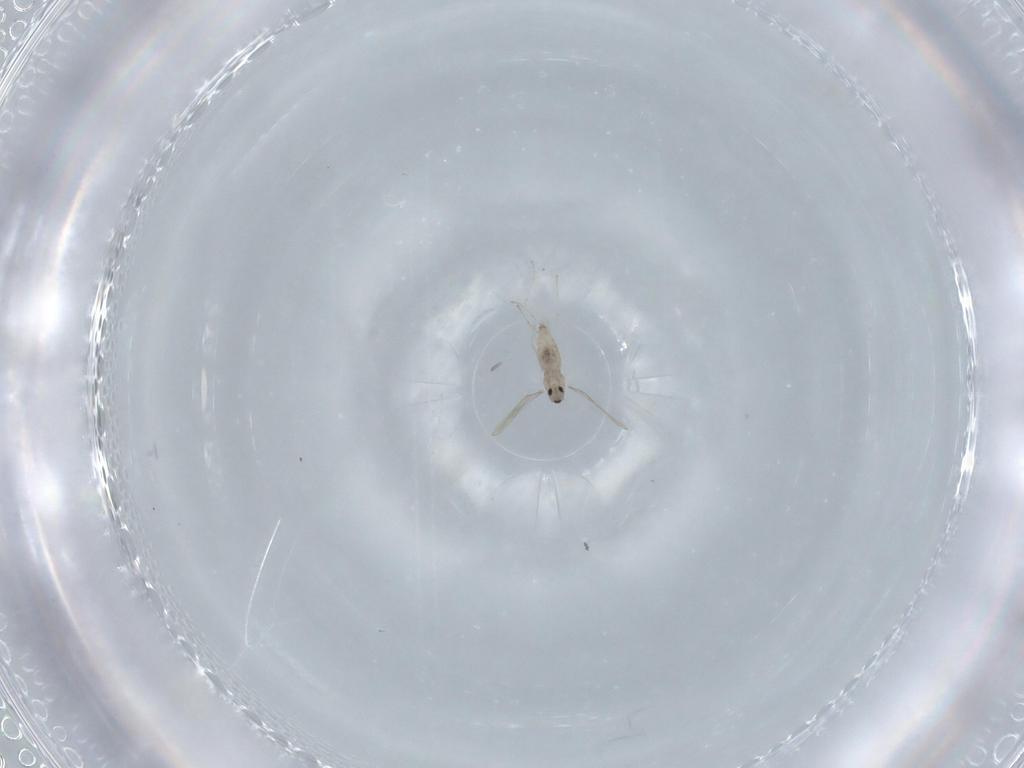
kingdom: Animalia
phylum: Arthropoda
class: Insecta
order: Diptera
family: Cecidomyiidae
